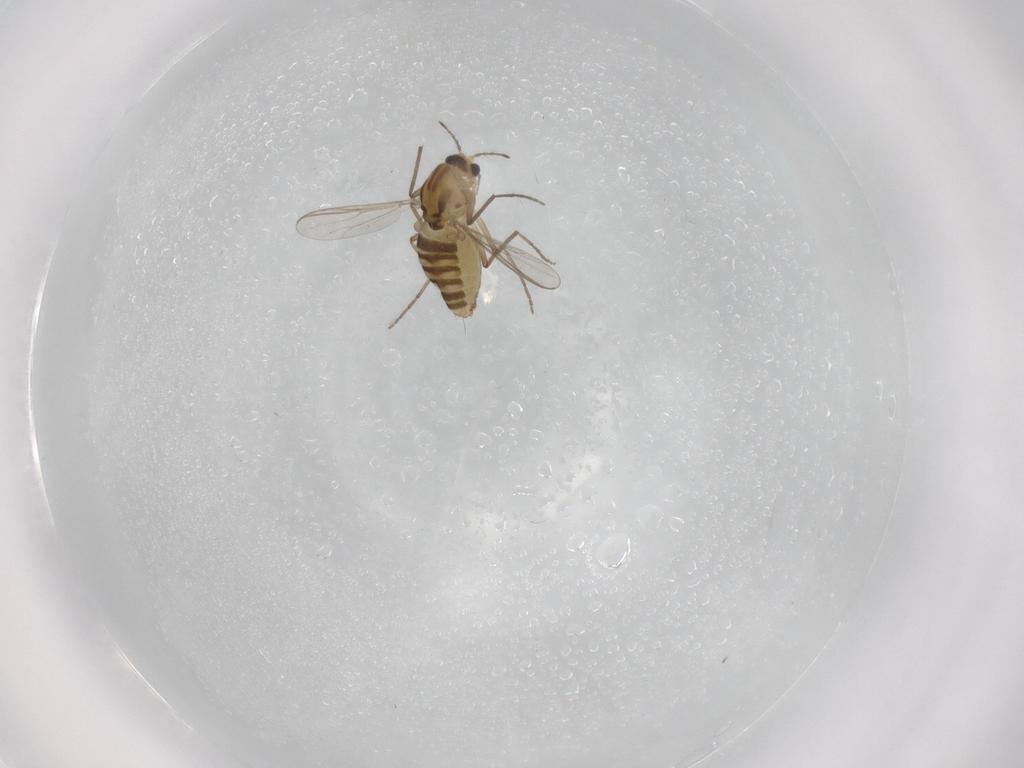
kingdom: Animalia
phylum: Arthropoda
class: Insecta
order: Diptera
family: Chironomidae
